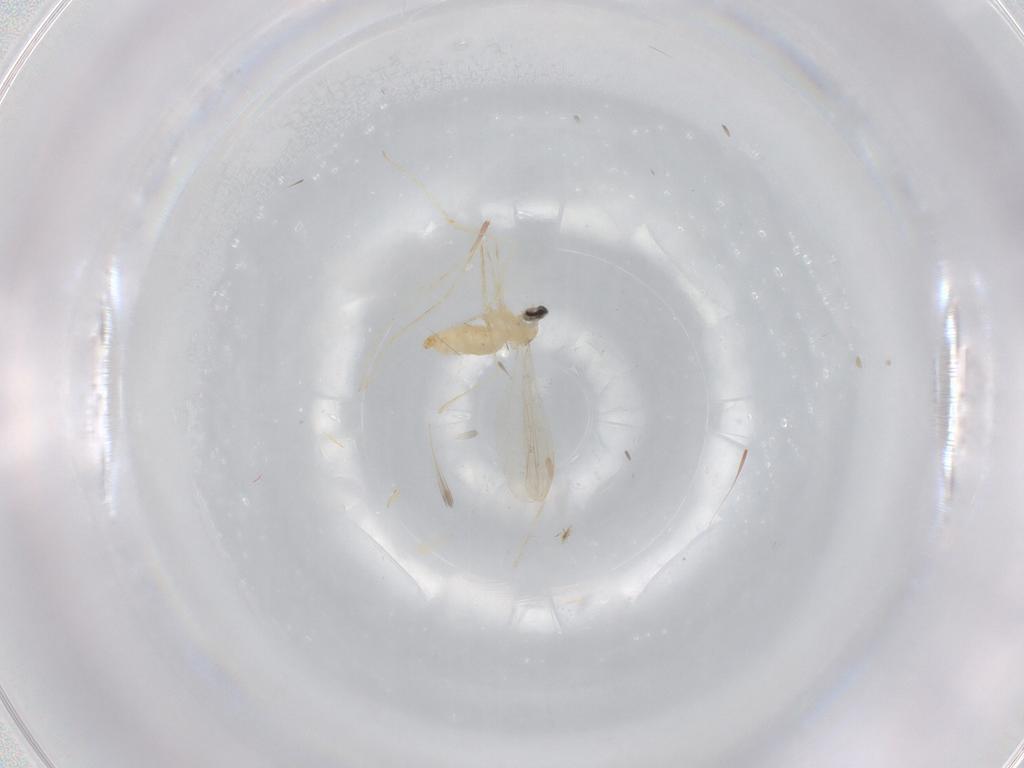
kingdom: Animalia
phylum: Arthropoda
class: Insecta
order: Diptera
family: Cecidomyiidae
